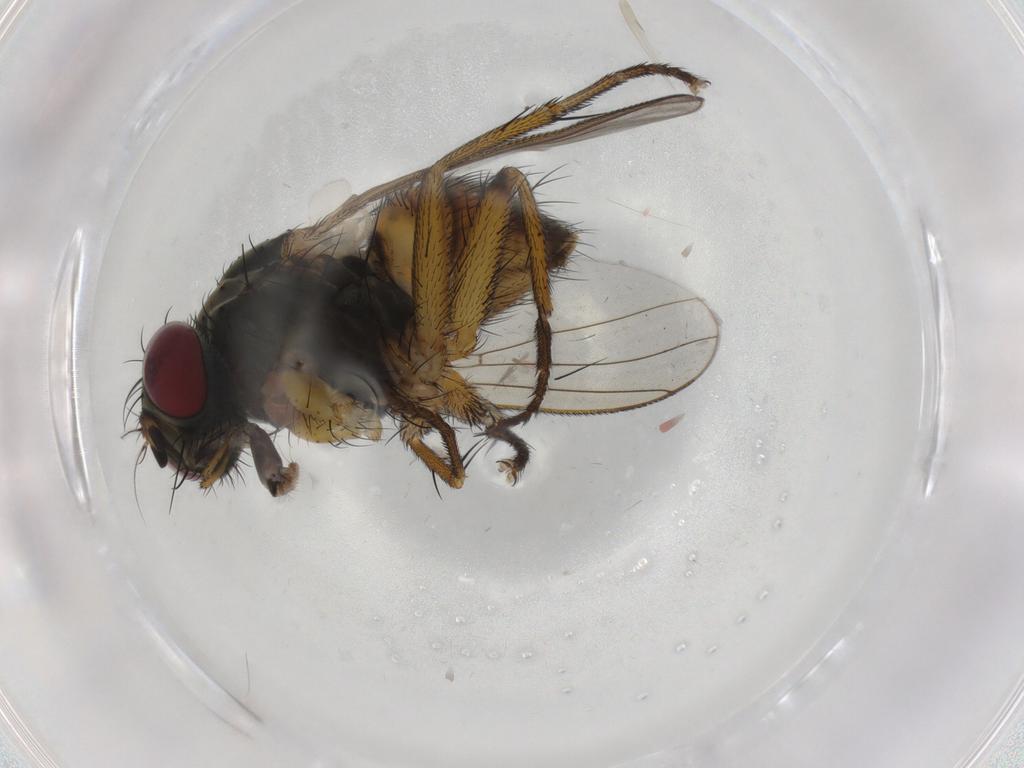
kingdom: Animalia
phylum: Arthropoda
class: Insecta
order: Diptera
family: Muscidae
